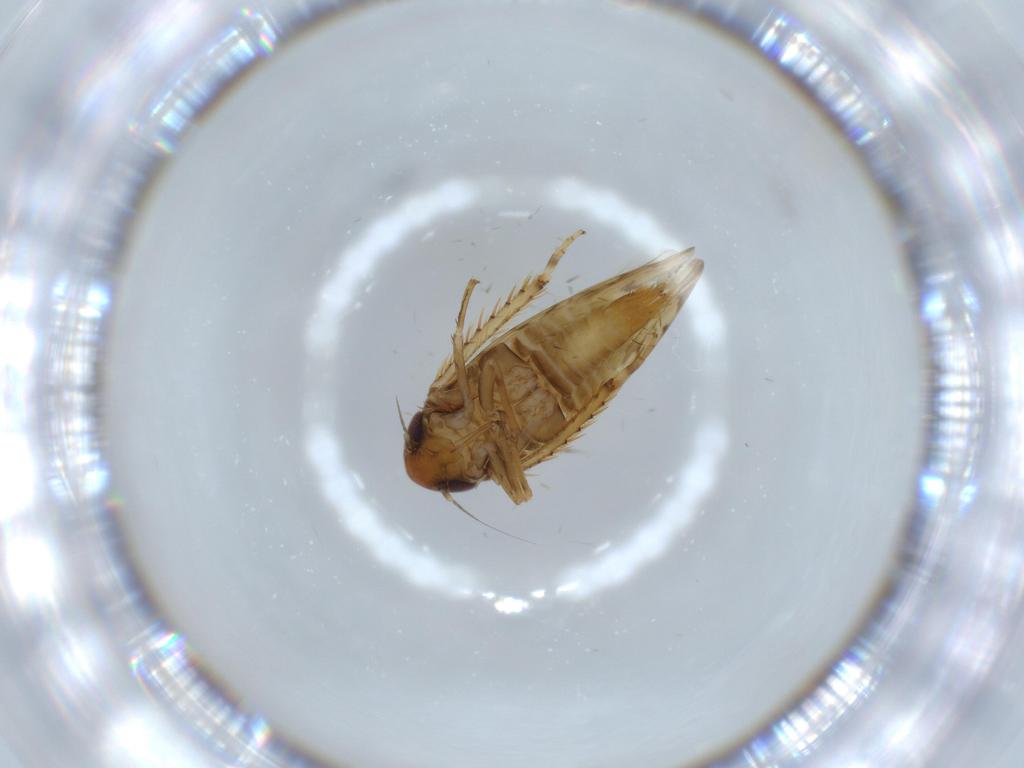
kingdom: Animalia
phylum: Arthropoda
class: Insecta
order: Hemiptera
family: Cicadellidae
